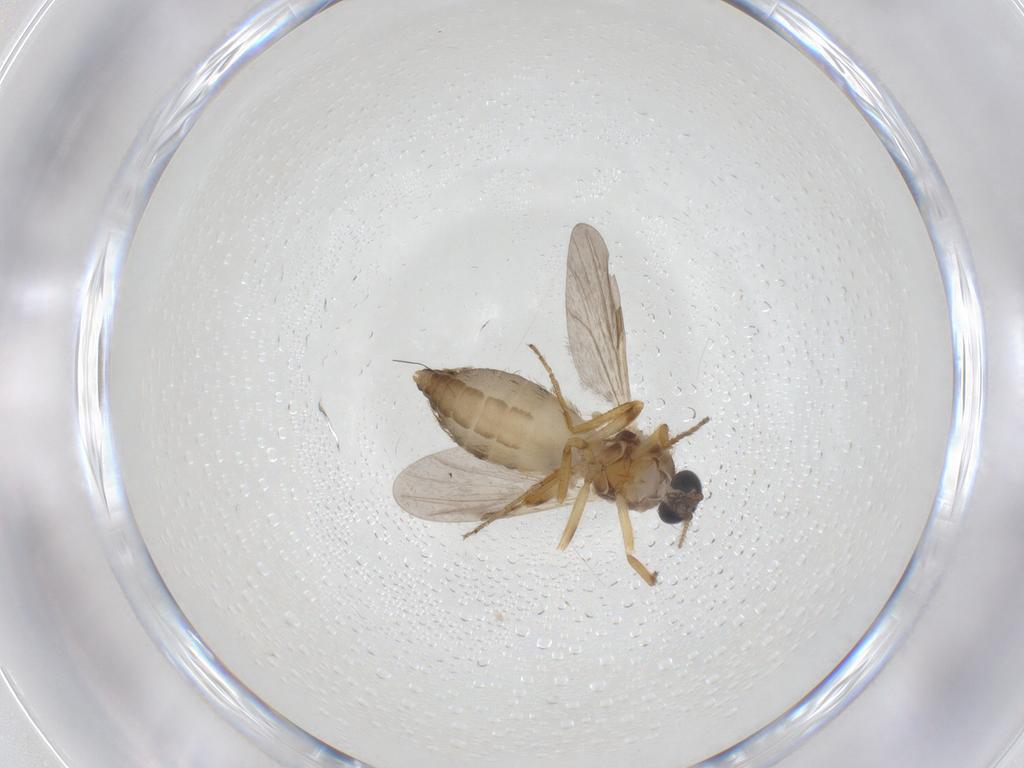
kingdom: Animalia
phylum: Arthropoda
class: Insecta
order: Diptera
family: Ceratopogonidae
